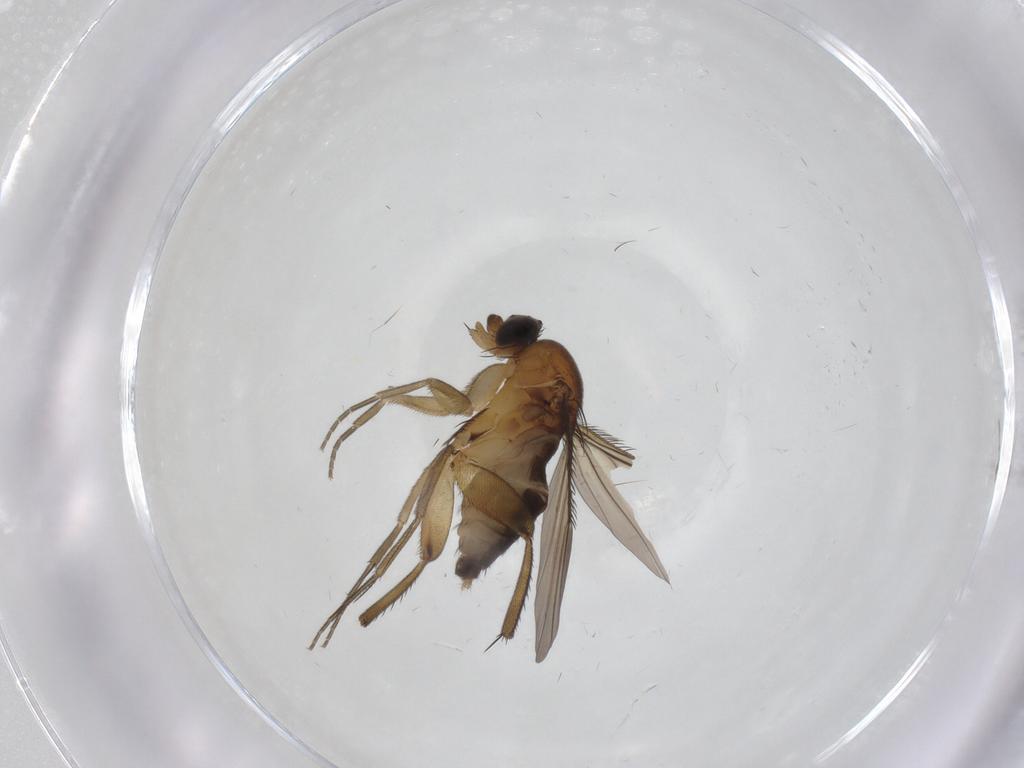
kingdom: Animalia
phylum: Arthropoda
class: Insecta
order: Diptera
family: Phoridae
